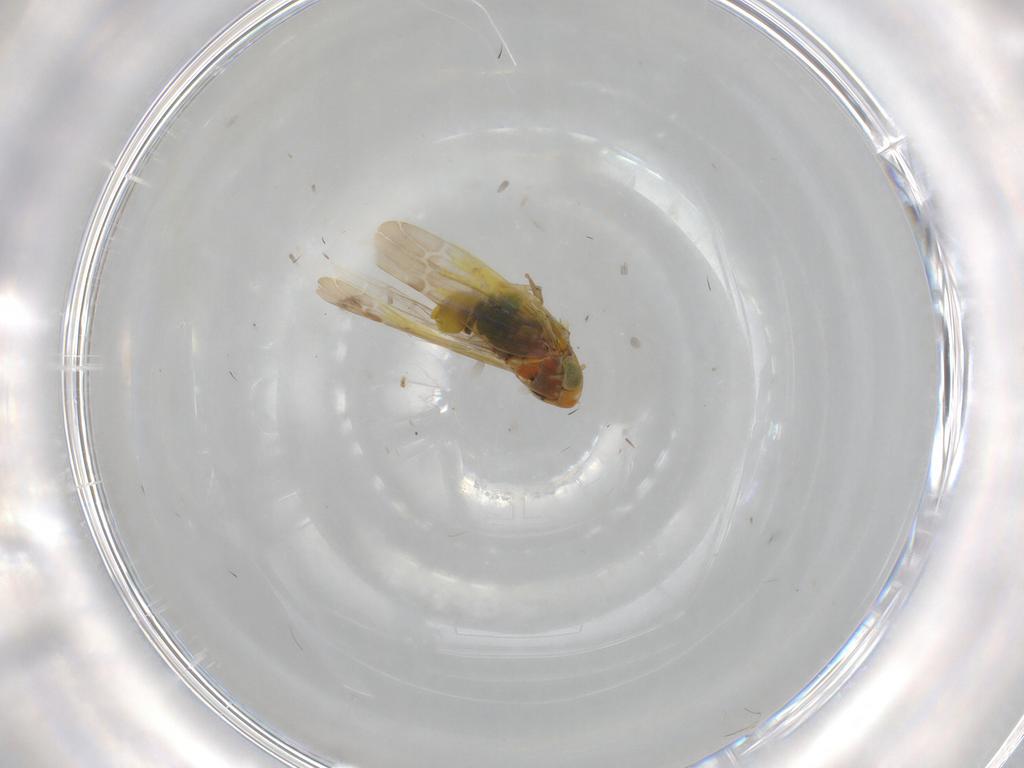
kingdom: Animalia
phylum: Arthropoda
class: Insecta
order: Hemiptera
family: Cicadellidae
